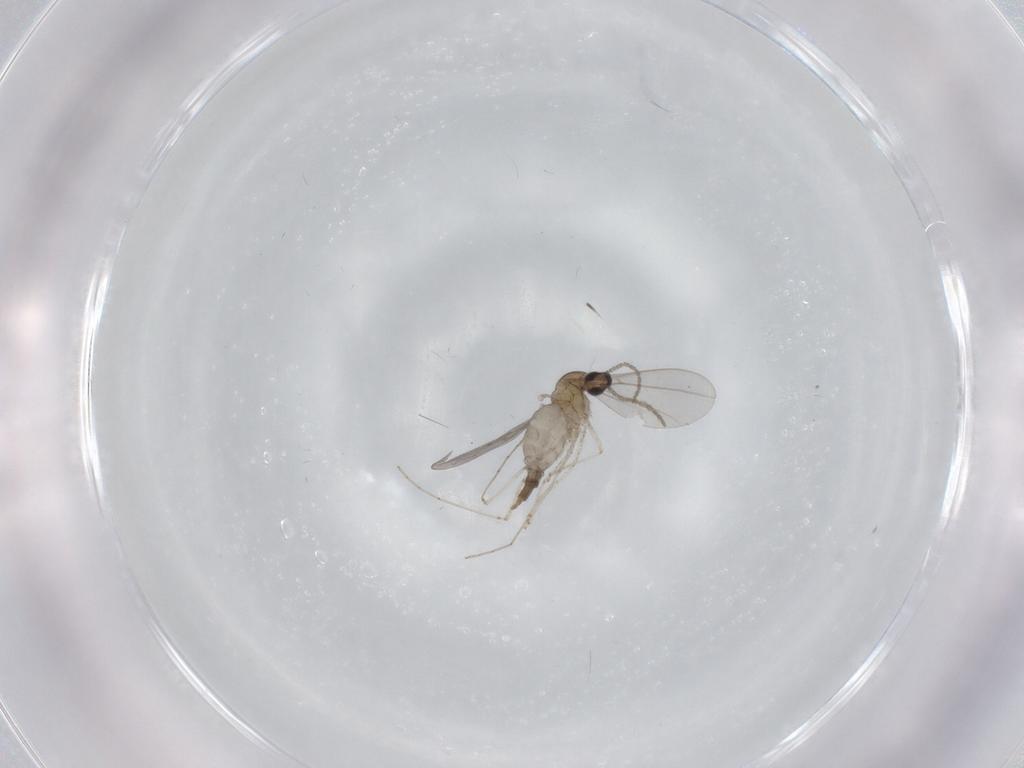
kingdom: Animalia
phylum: Arthropoda
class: Insecta
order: Diptera
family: Cecidomyiidae
